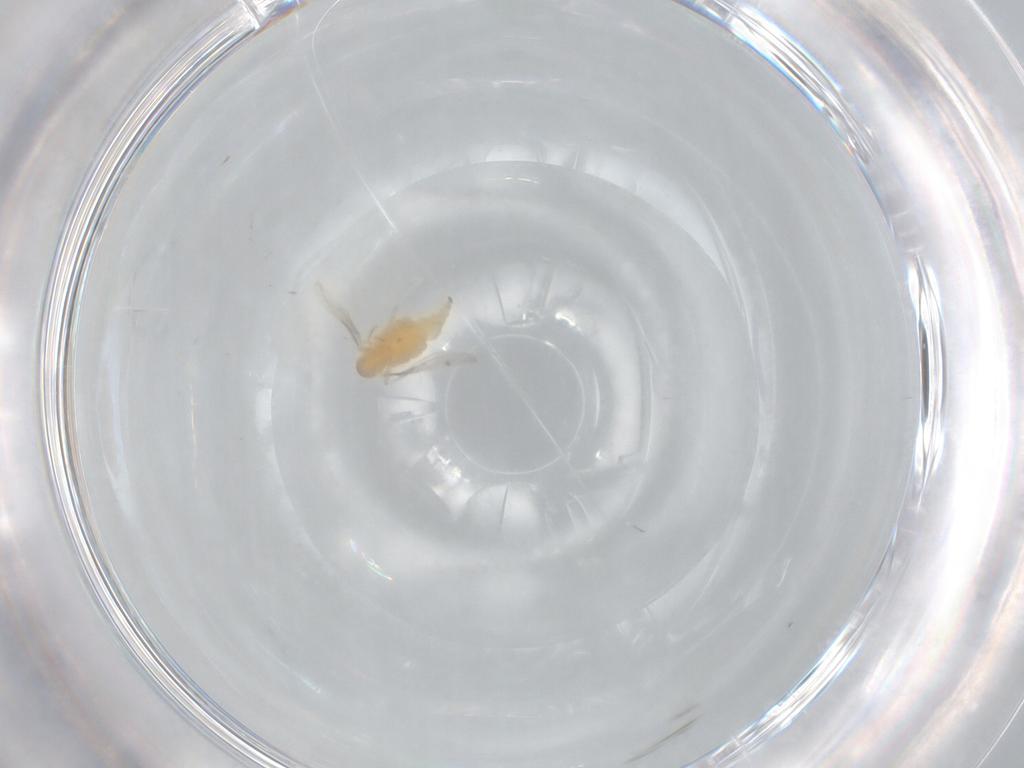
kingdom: Animalia
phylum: Arthropoda
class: Insecta
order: Diptera
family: Cecidomyiidae
